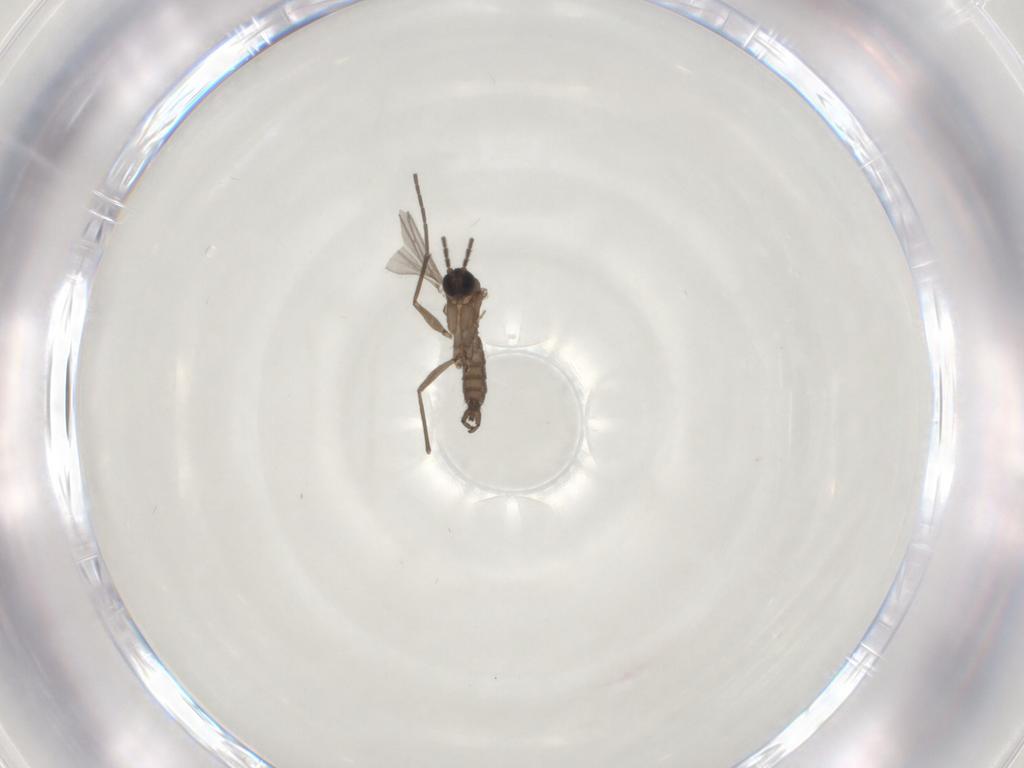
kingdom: Animalia
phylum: Arthropoda
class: Insecta
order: Diptera
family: Sciaridae
